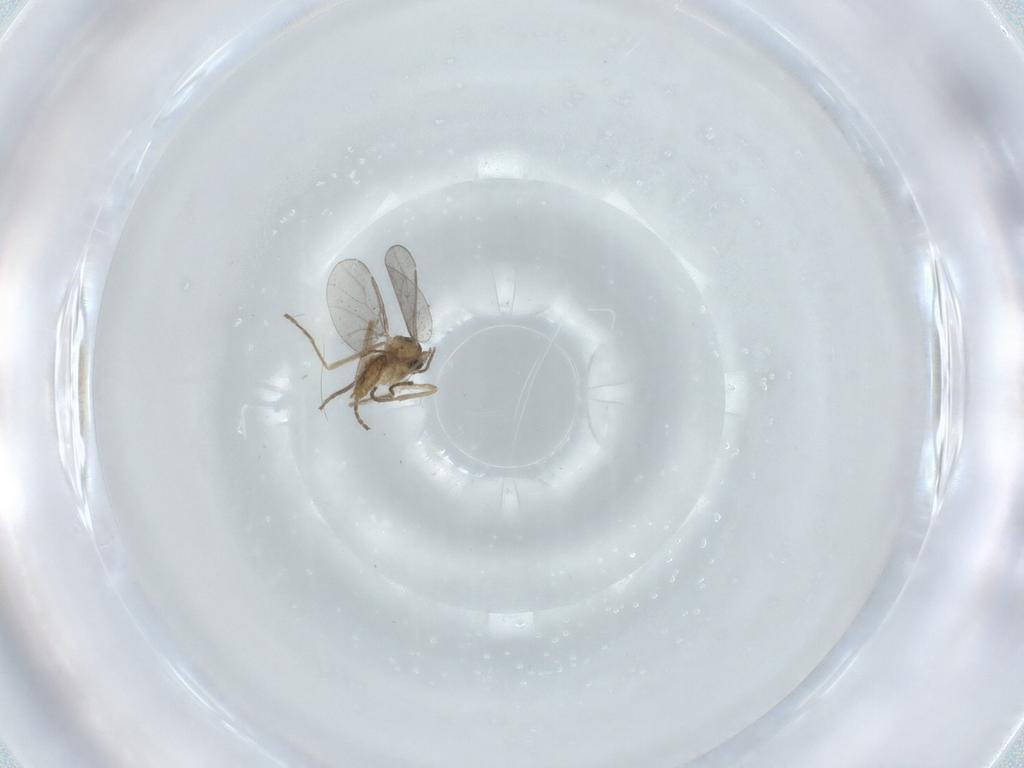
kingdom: Animalia
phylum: Arthropoda
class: Insecta
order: Diptera
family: Cecidomyiidae
